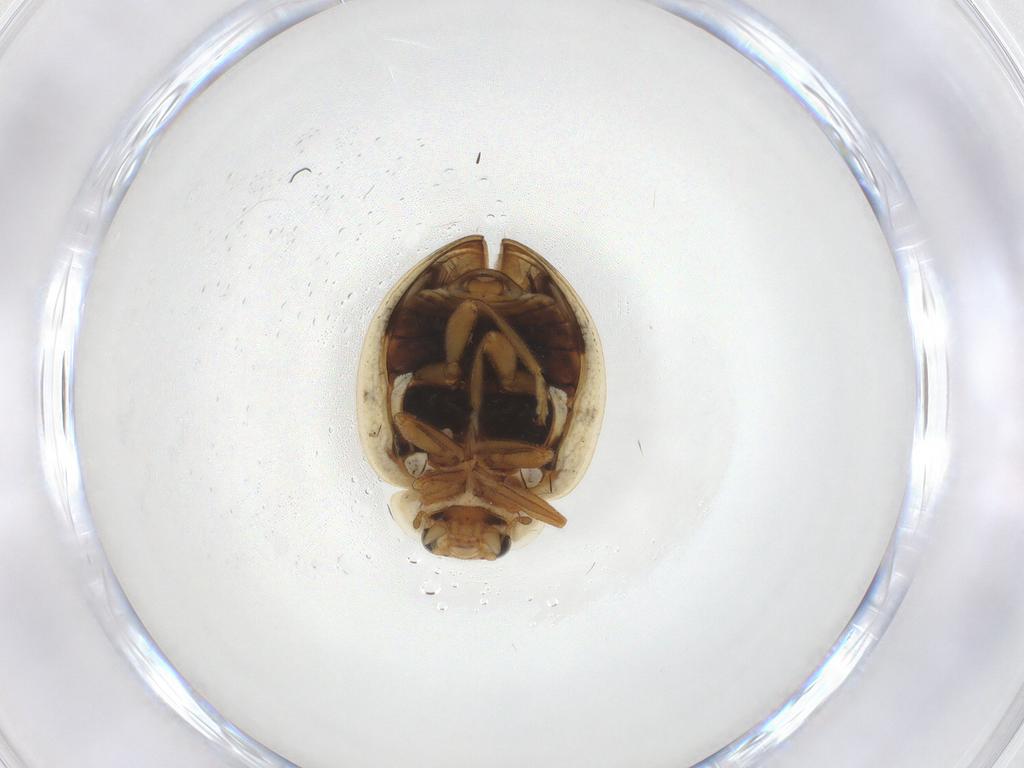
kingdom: Animalia
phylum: Arthropoda
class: Insecta
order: Coleoptera
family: Coccinellidae
